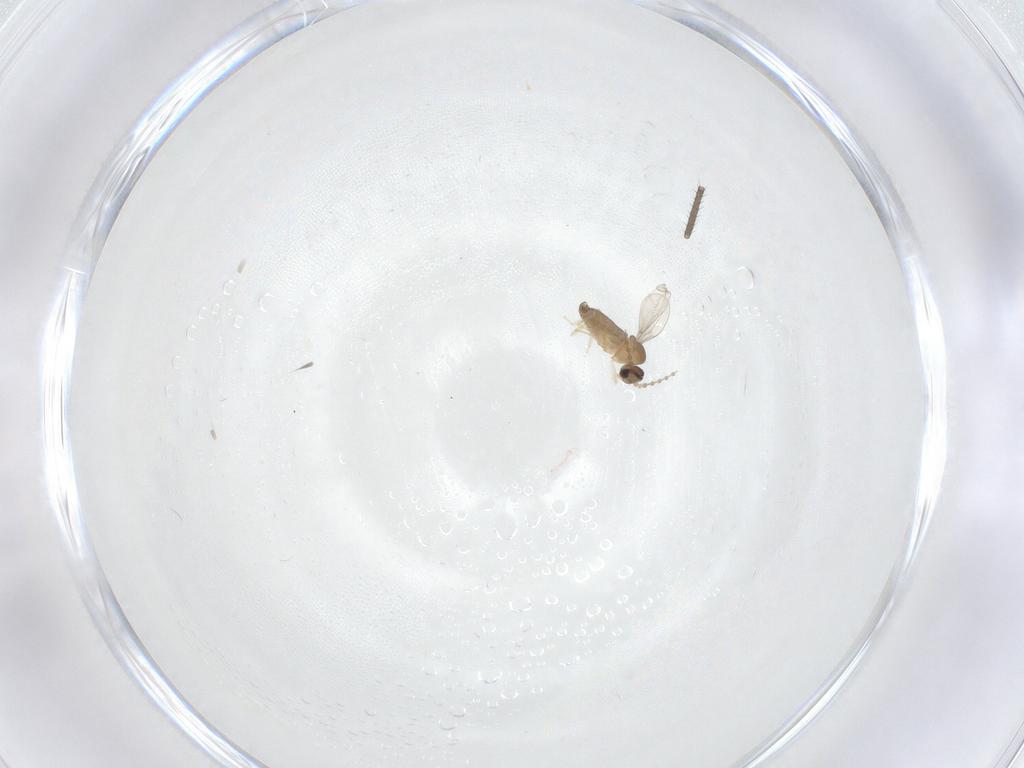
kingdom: Animalia
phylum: Arthropoda
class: Insecta
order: Diptera
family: Cecidomyiidae
